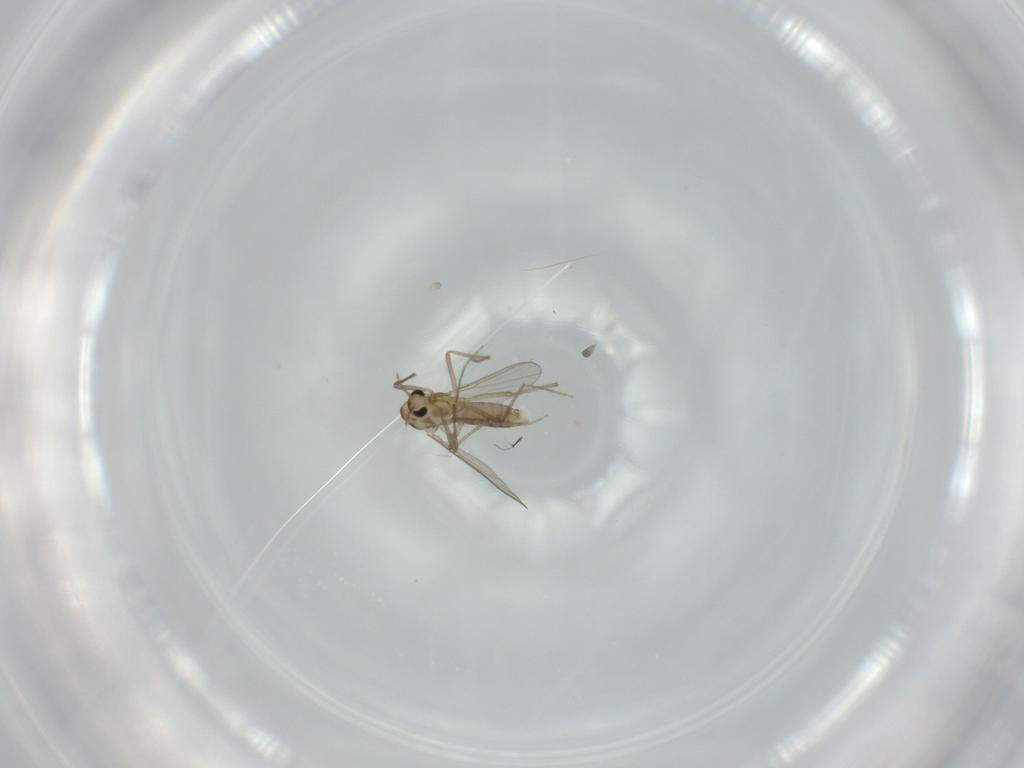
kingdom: Animalia
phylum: Arthropoda
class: Insecta
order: Diptera
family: Chironomidae
